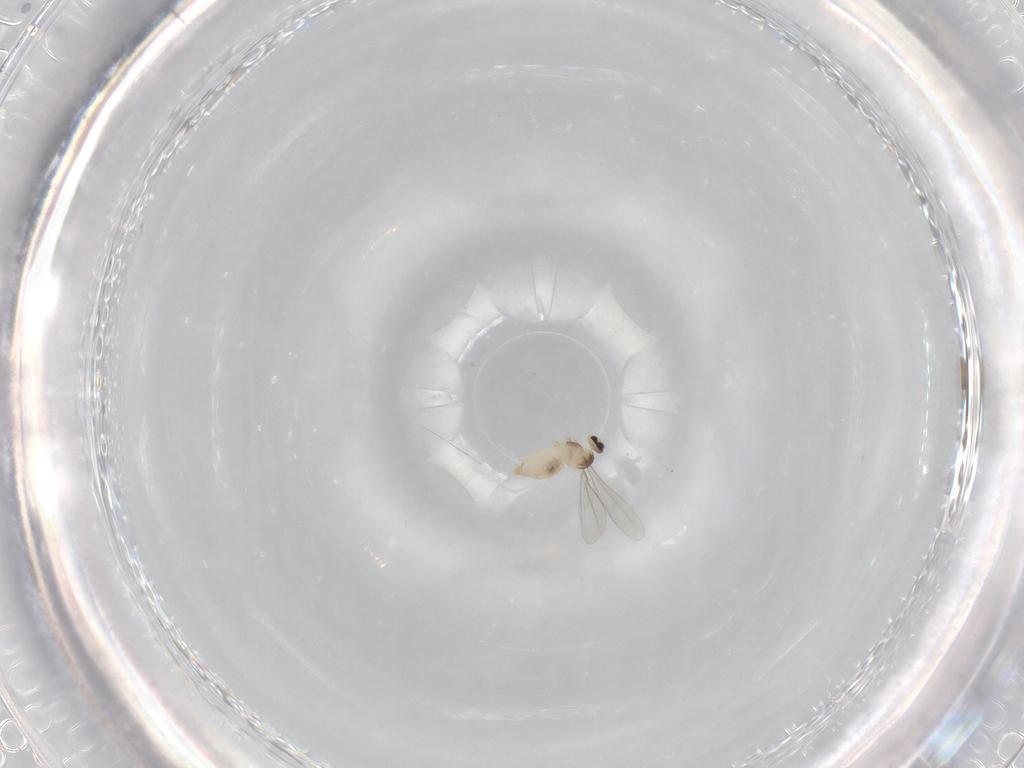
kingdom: Animalia
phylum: Arthropoda
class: Insecta
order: Diptera
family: Cecidomyiidae
